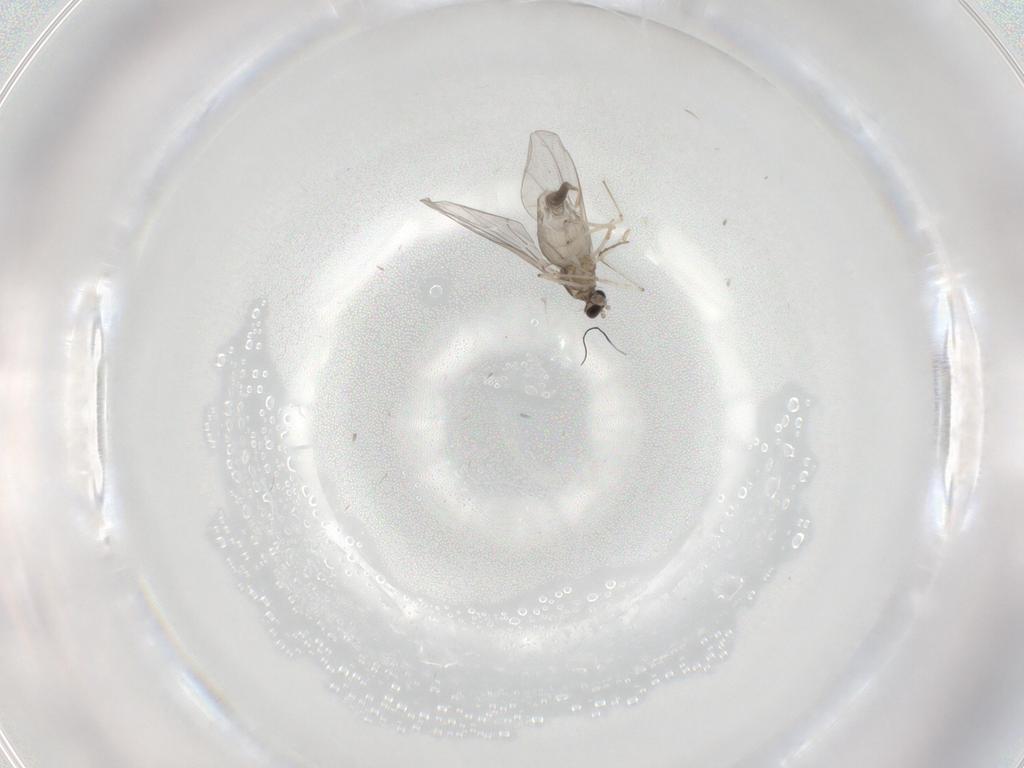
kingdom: Animalia
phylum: Arthropoda
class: Insecta
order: Diptera
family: Cecidomyiidae
